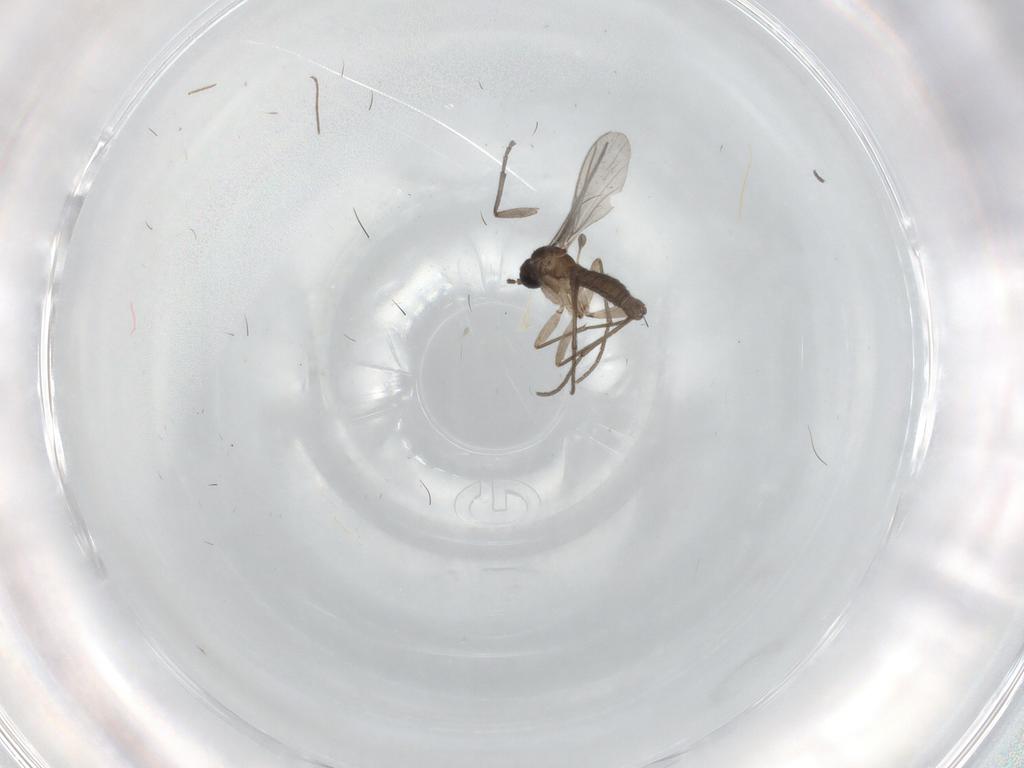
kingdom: Animalia
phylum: Arthropoda
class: Insecta
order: Diptera
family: Sciaridae
